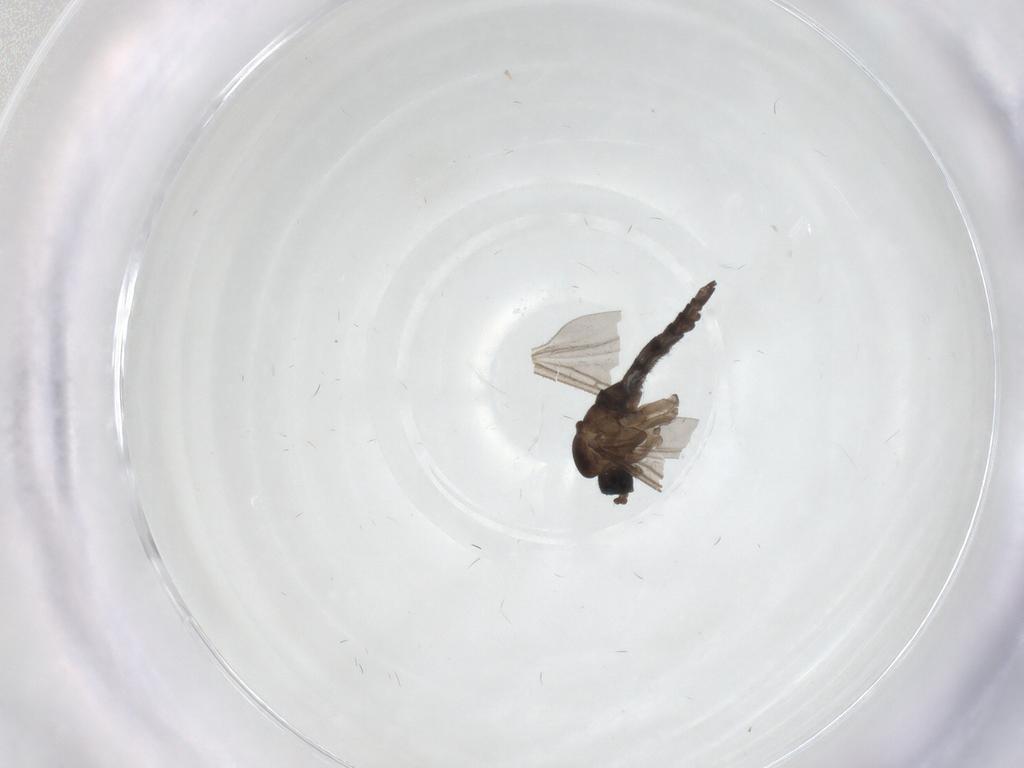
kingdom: Animalia
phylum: Arthropoda
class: Insecta
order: Diptera
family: Sciaridae
